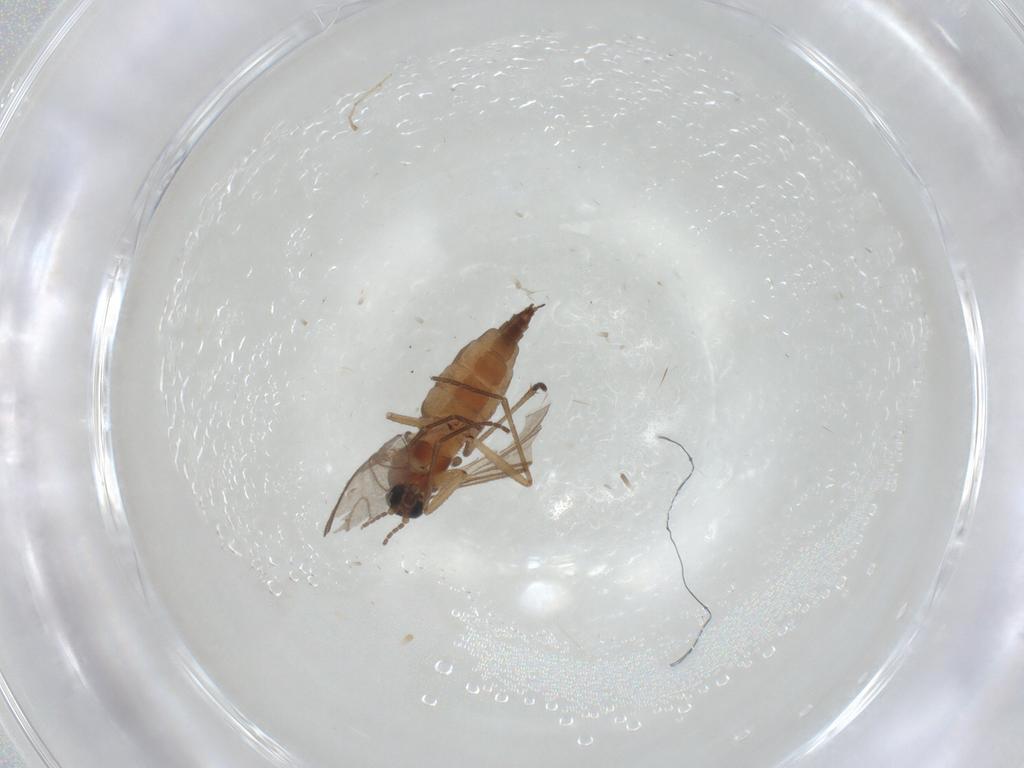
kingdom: Animalia
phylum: Arthropoda
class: Insecta
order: Diptera
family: Sciaridae
